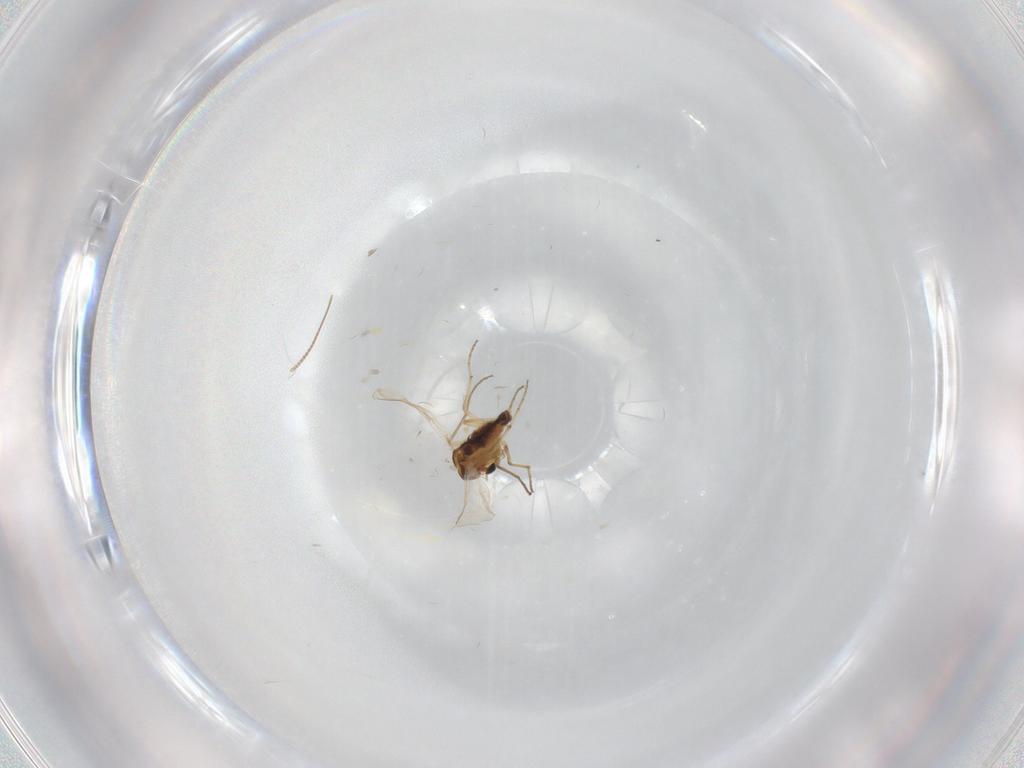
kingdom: Animalia
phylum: Arthropoda
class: Insecta
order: Diptera
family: Chironomidae
